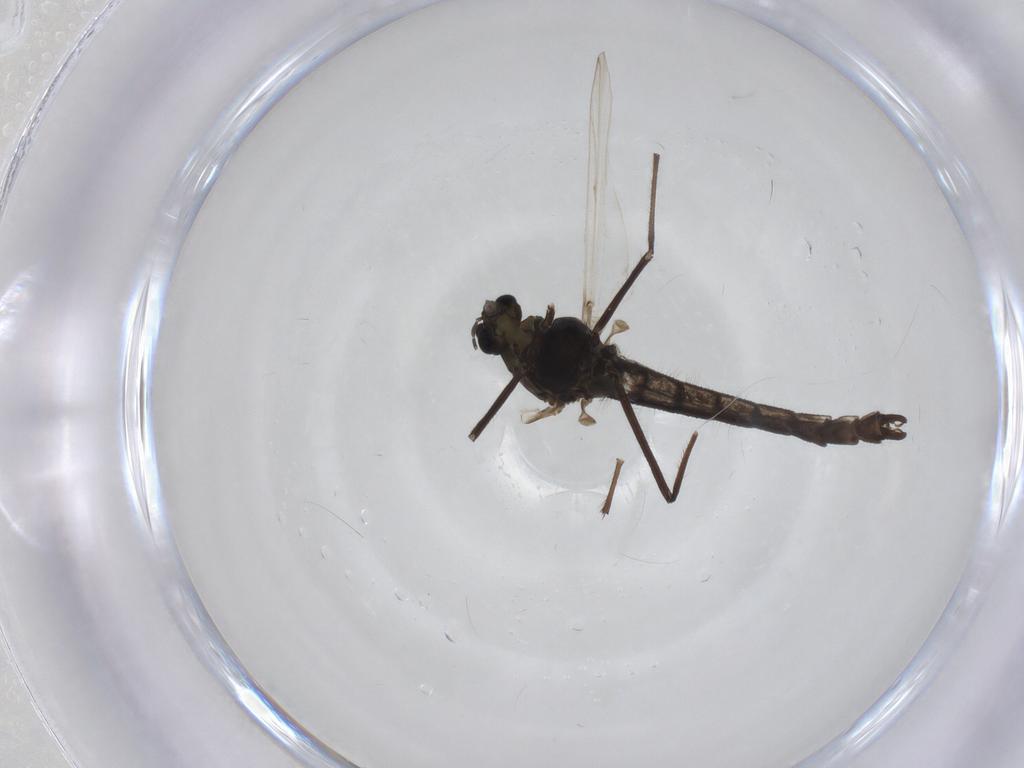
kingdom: Animalia
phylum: Arthropoda
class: Insecta
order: Diptera
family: Chironomidae
